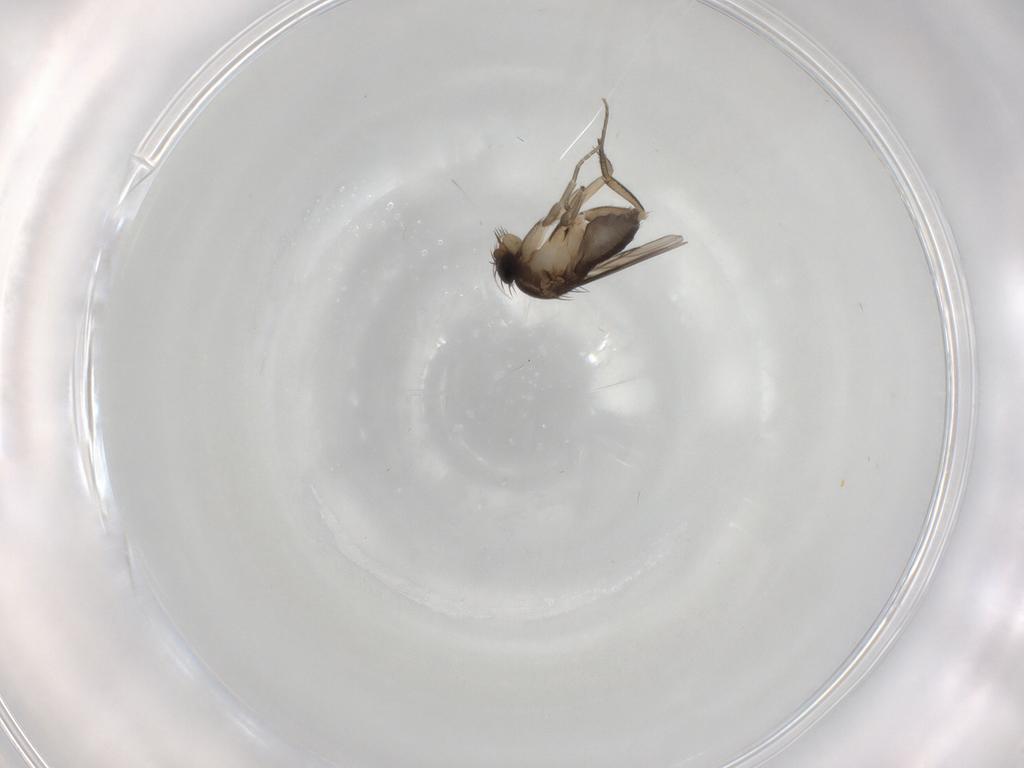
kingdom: Animalia
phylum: Arthropoda
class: Insecta
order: Diptera
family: Phoridae
